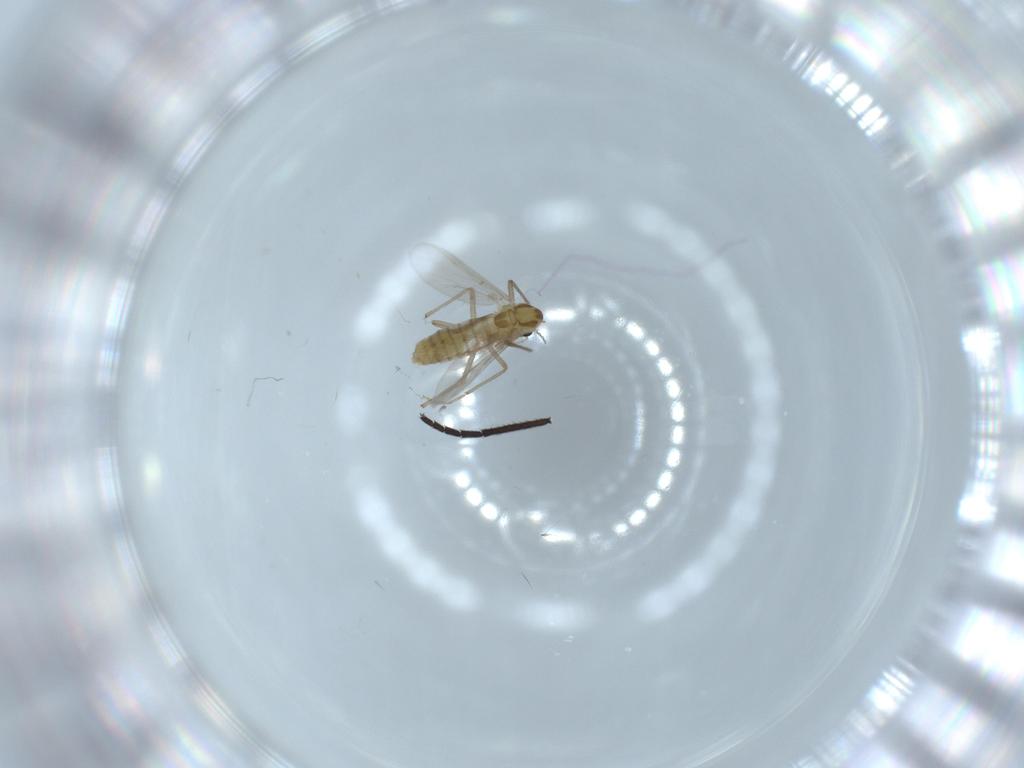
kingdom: Animalia
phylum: Arthropoda
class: Insecta
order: Diptera
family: Chironomidae
